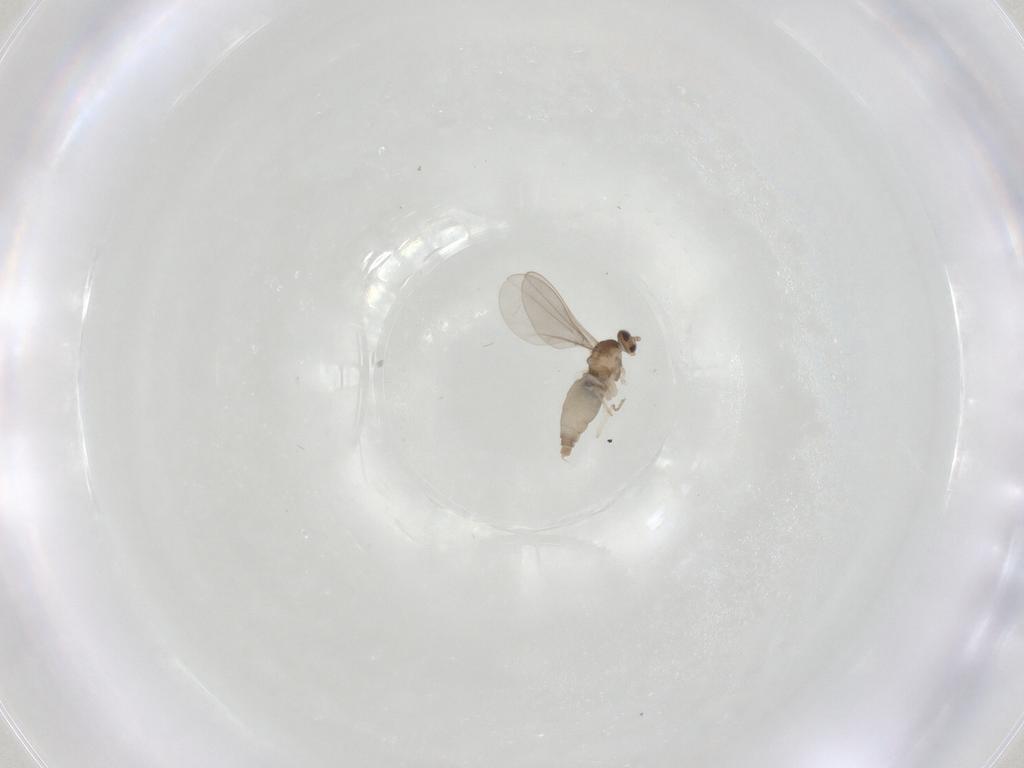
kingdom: Animalia
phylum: Arthropoda
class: Insecta
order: Diptera
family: Cecidomyiidae
